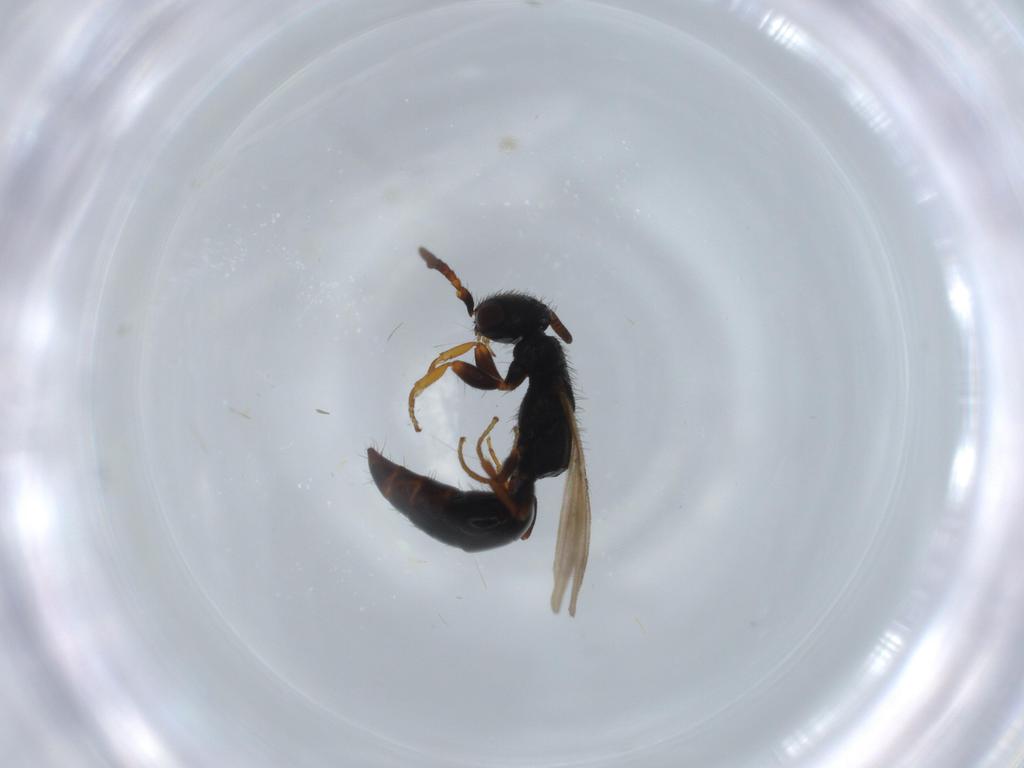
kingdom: Animalia
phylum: Arthropoda
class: Insecta
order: Hymenoptera
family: Bethylidae
